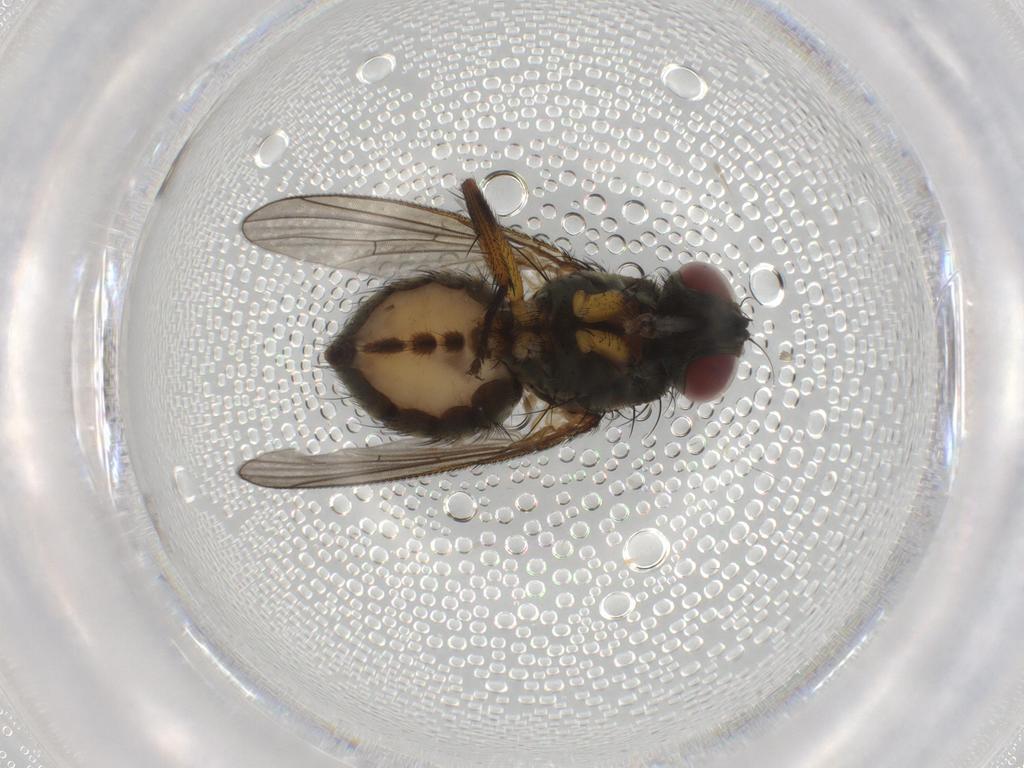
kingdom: Animalia
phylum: Arthropoda
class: Insecta
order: Diptera
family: Muscidae
